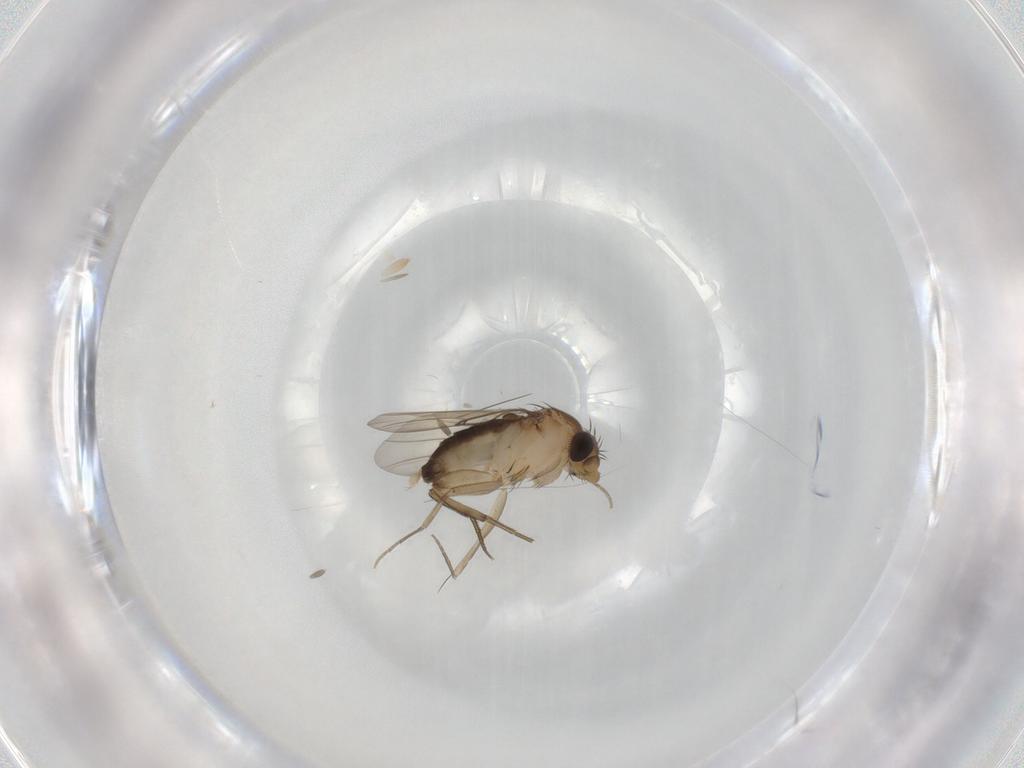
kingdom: Animalia
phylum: Arthropoda
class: Insecta
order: Diptera
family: Phoridae
